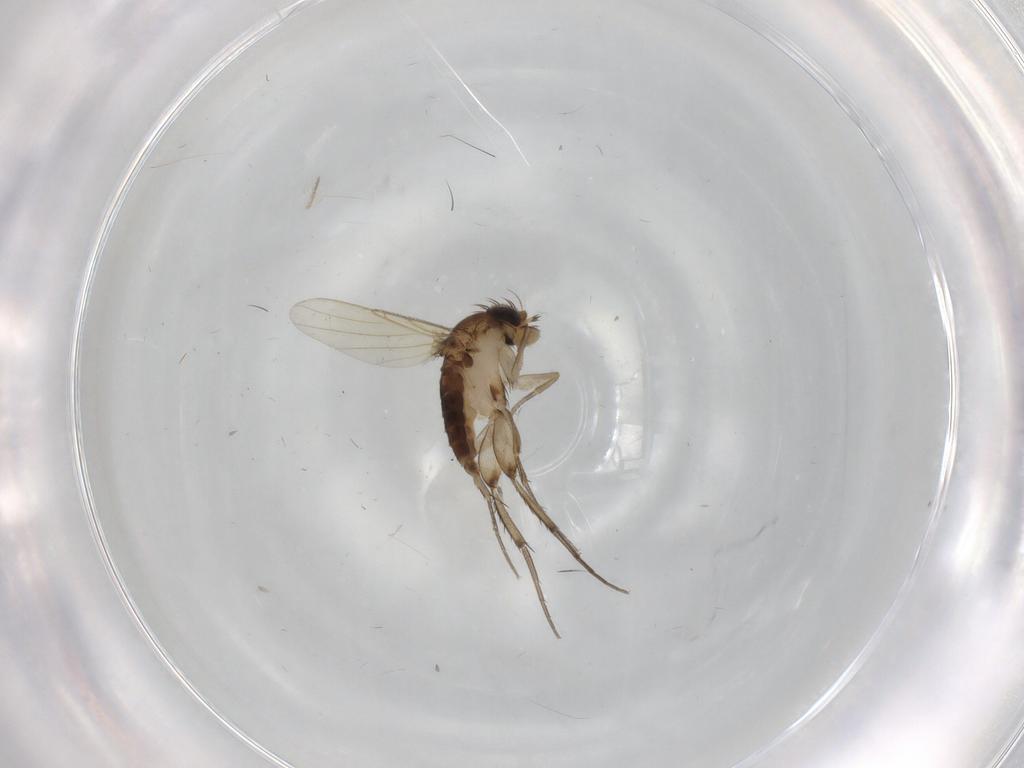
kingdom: Animalia
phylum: Arthropoda
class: Insecta
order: Diptera
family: Phoridae
